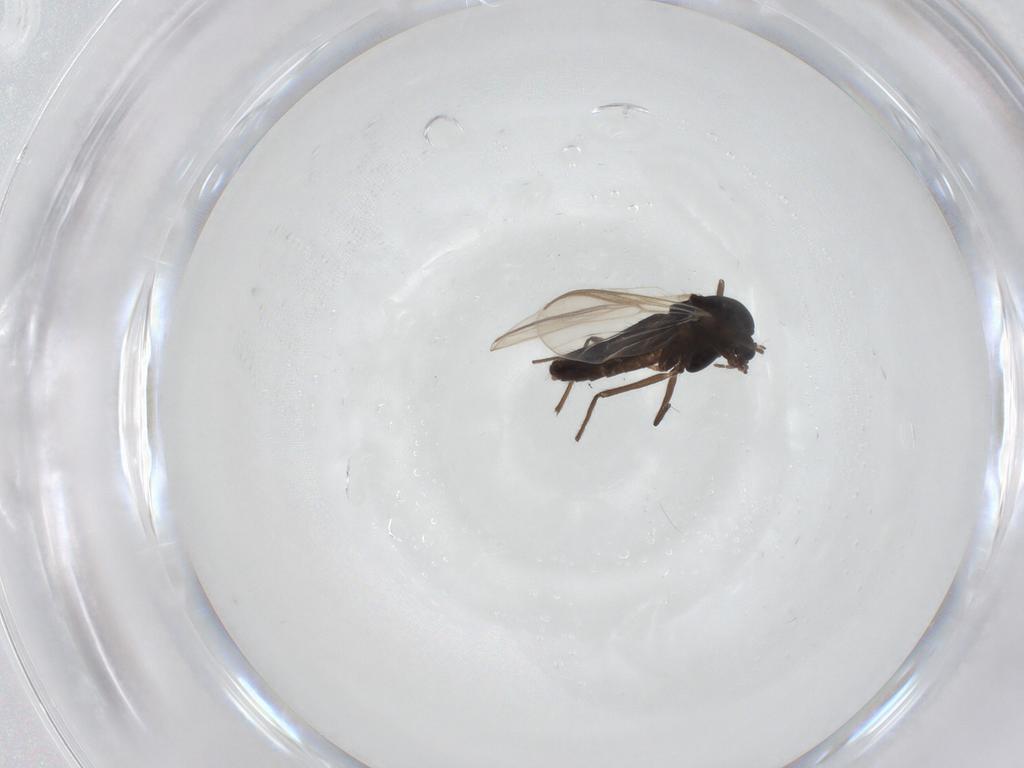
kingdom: Animalia
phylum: Arthropoda
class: Insecta
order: Diptera
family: Chironomidae
